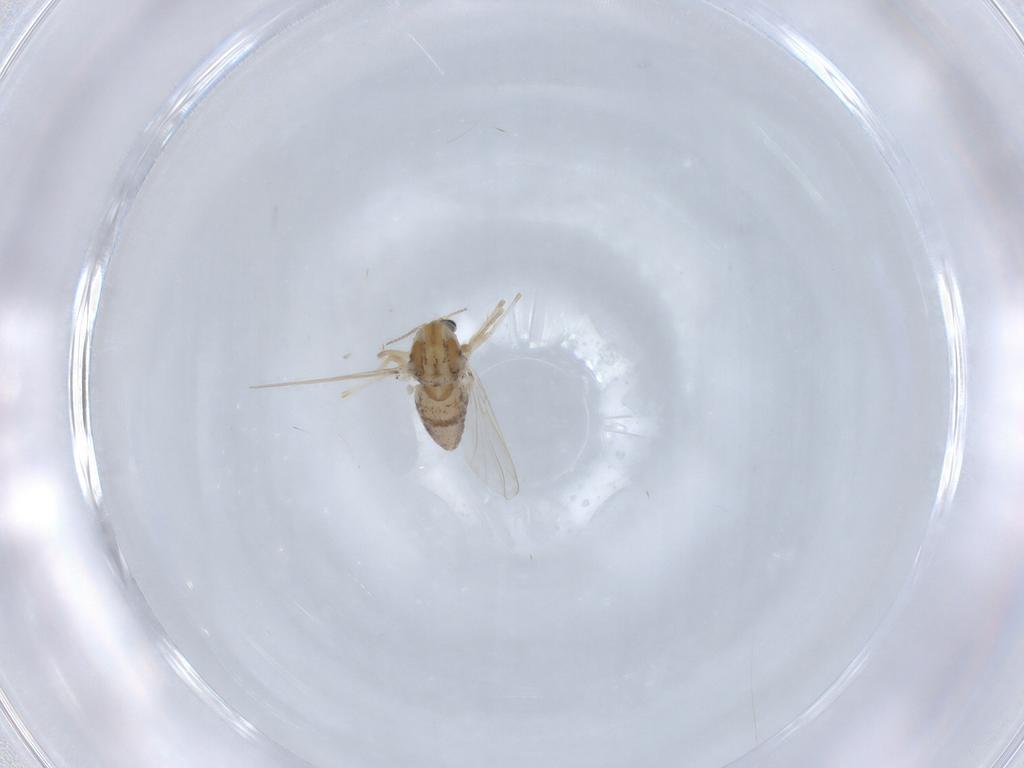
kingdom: Animalia
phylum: Arthropoda
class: Insecta
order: Diptera
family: Chironomidae
